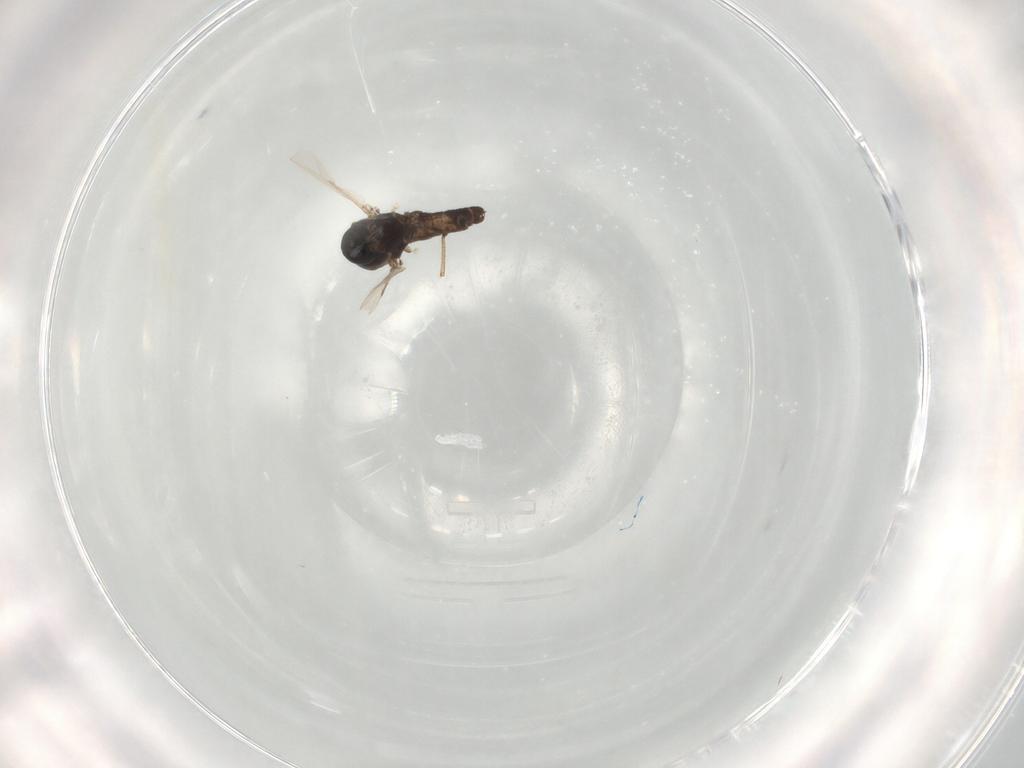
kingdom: Animalia
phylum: Arthropoda
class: Insecta
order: Diptera
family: Ceratopogonidae
